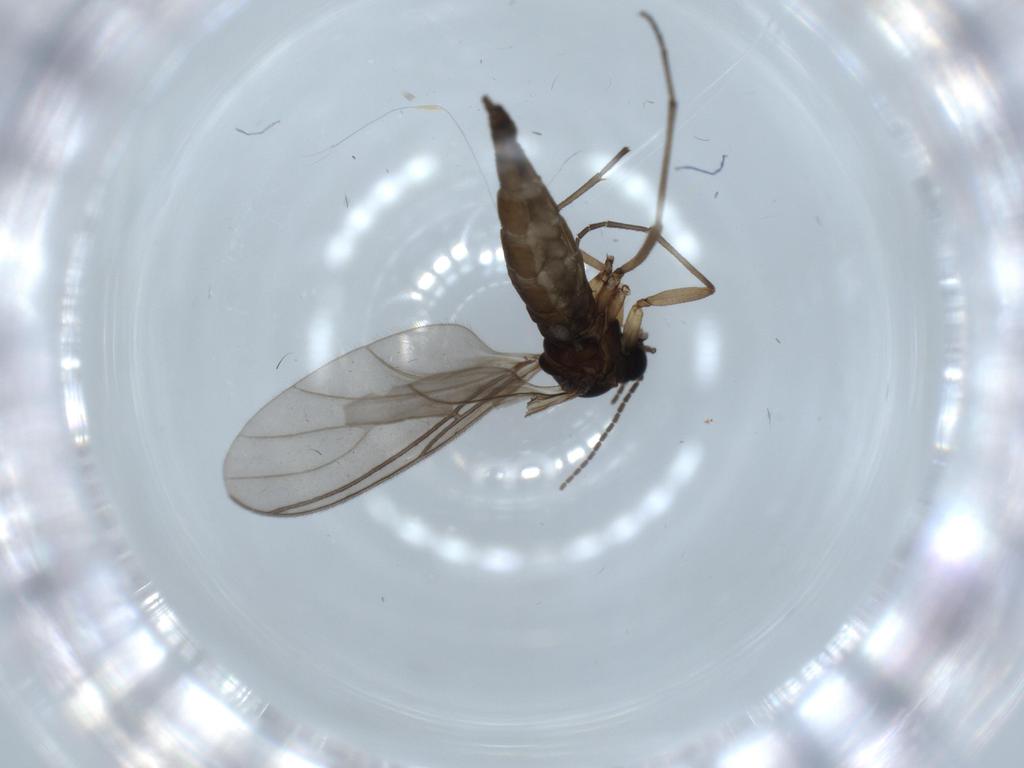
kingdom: Animalia
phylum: Arthropoda
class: Insecta
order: Diptera
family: Sciaridae
